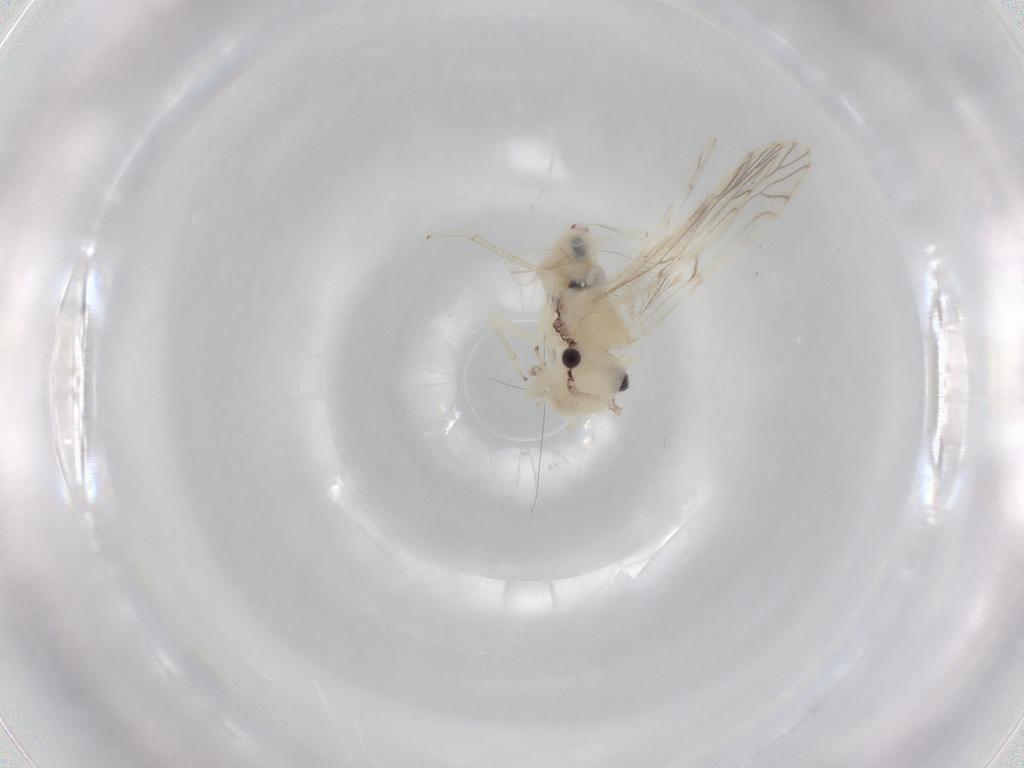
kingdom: Animalia
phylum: Arthropoda
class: Insecta
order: Psocodea
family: Philotarsidae
